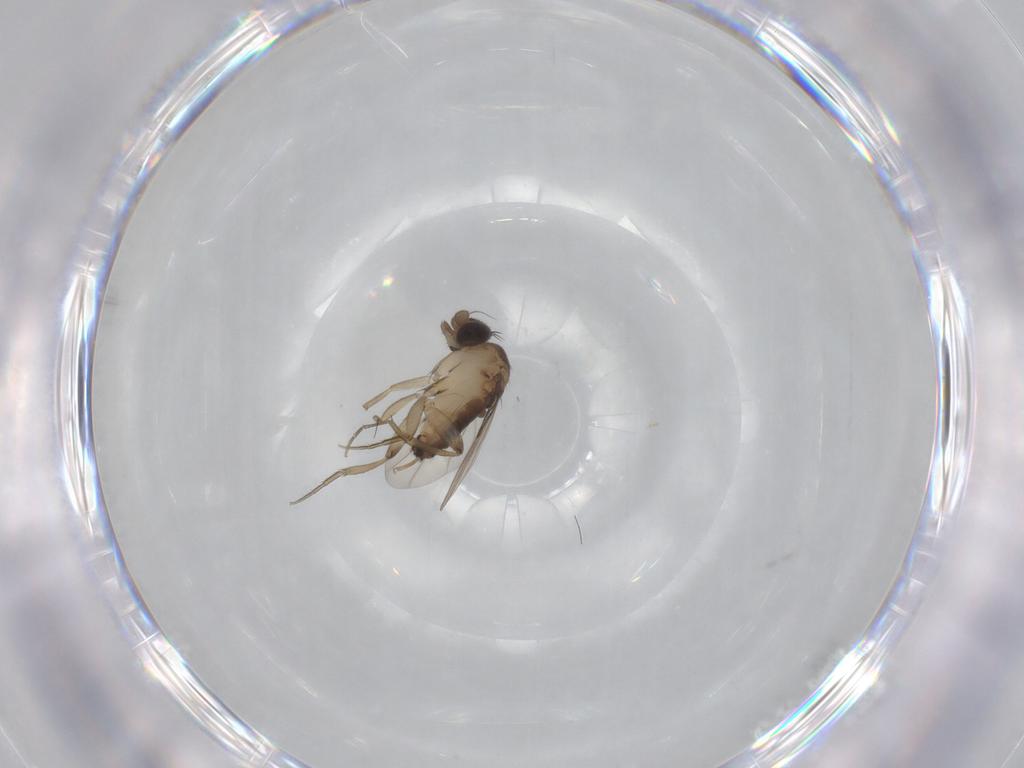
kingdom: Animalia
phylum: Arthropoda
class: Insecta
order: Diptera
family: Phoridae
